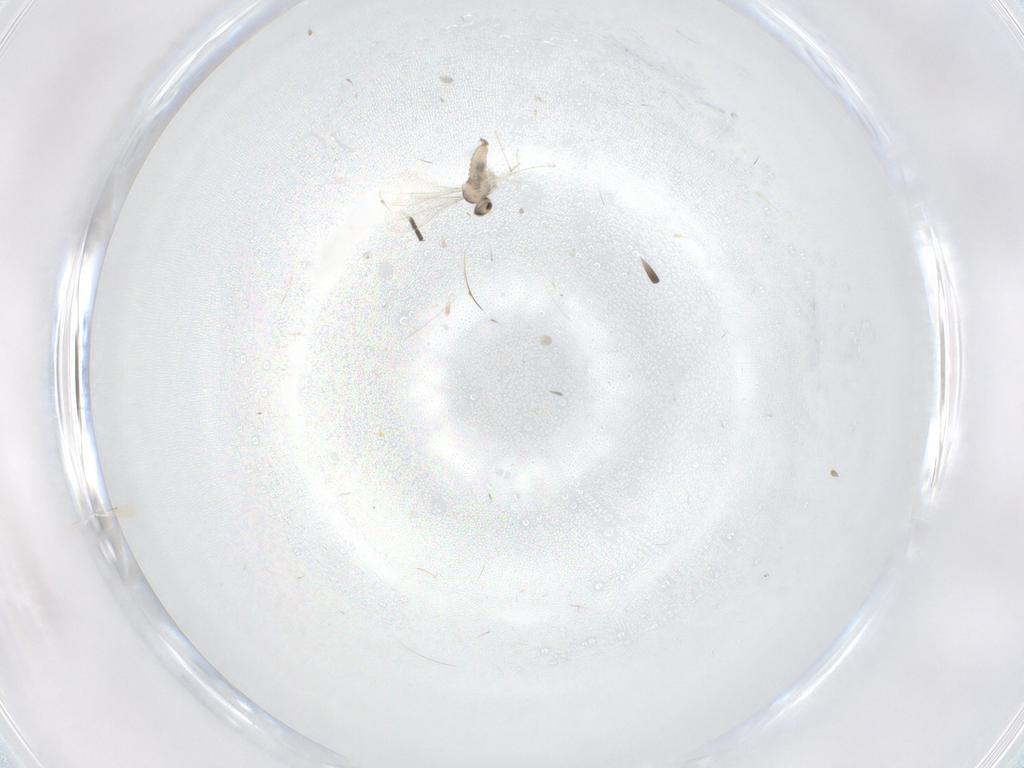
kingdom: Animalia
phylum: Arthropoda
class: Insecta
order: Diptera
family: Cecidomyiidae
